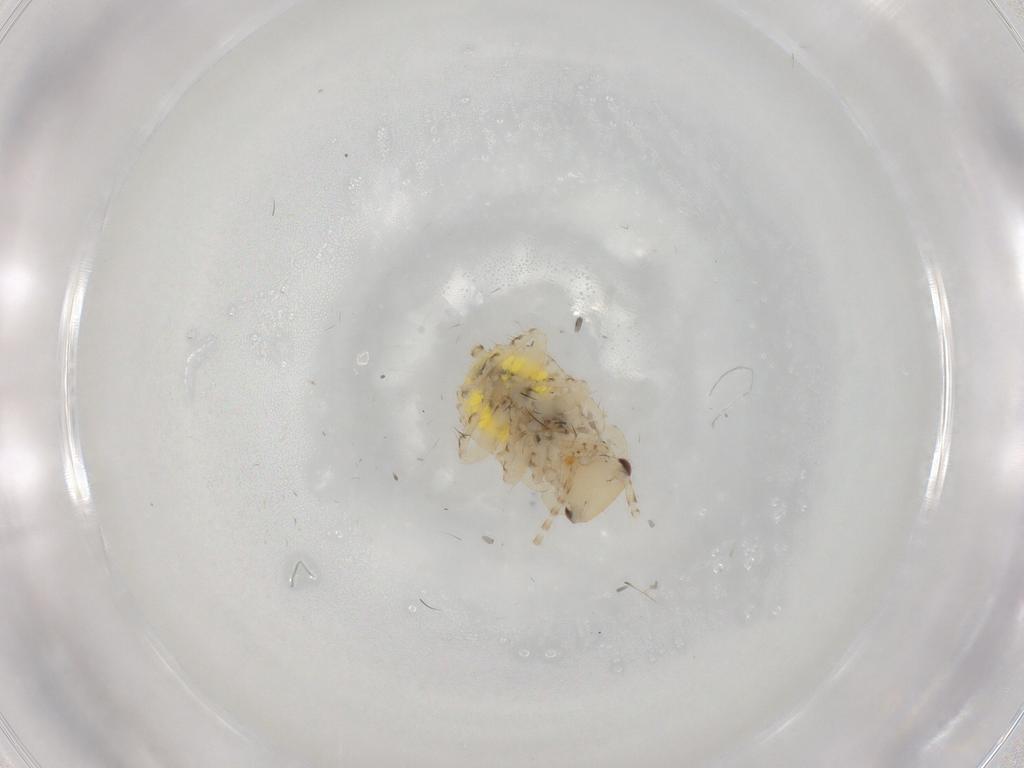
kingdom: Animalia
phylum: Arthropoda
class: Insecta
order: Blattodea
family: Ectobiidae
